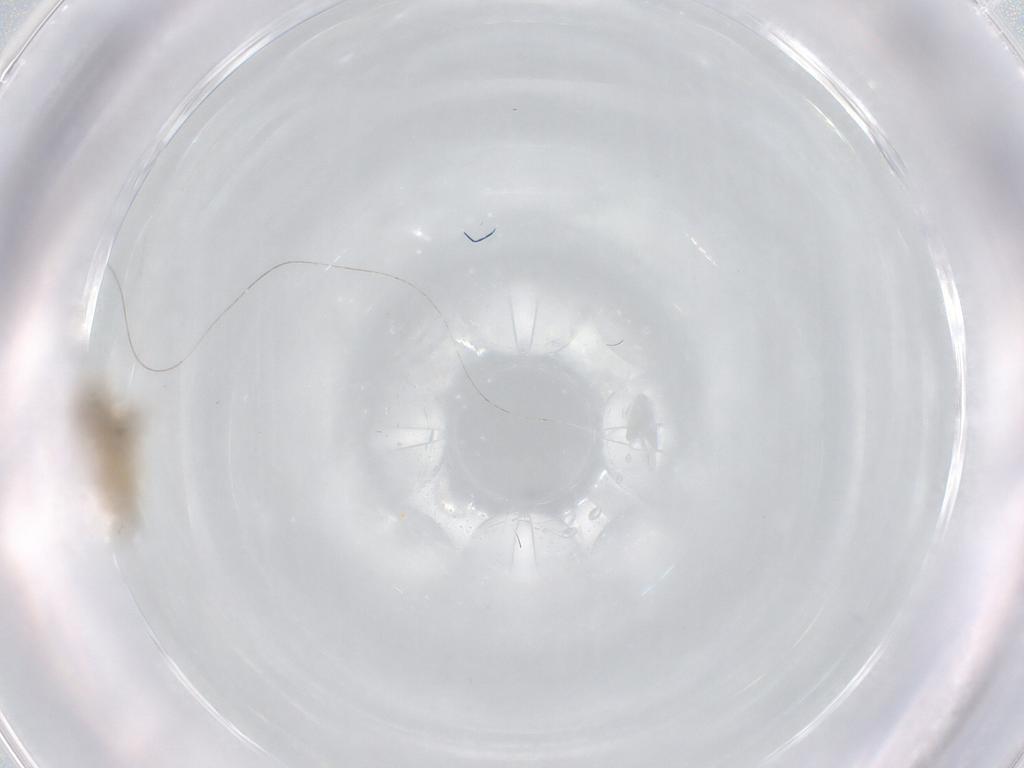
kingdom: Animalia
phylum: Arthropoda
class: Insecta
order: Diptera
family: Chironomidae
